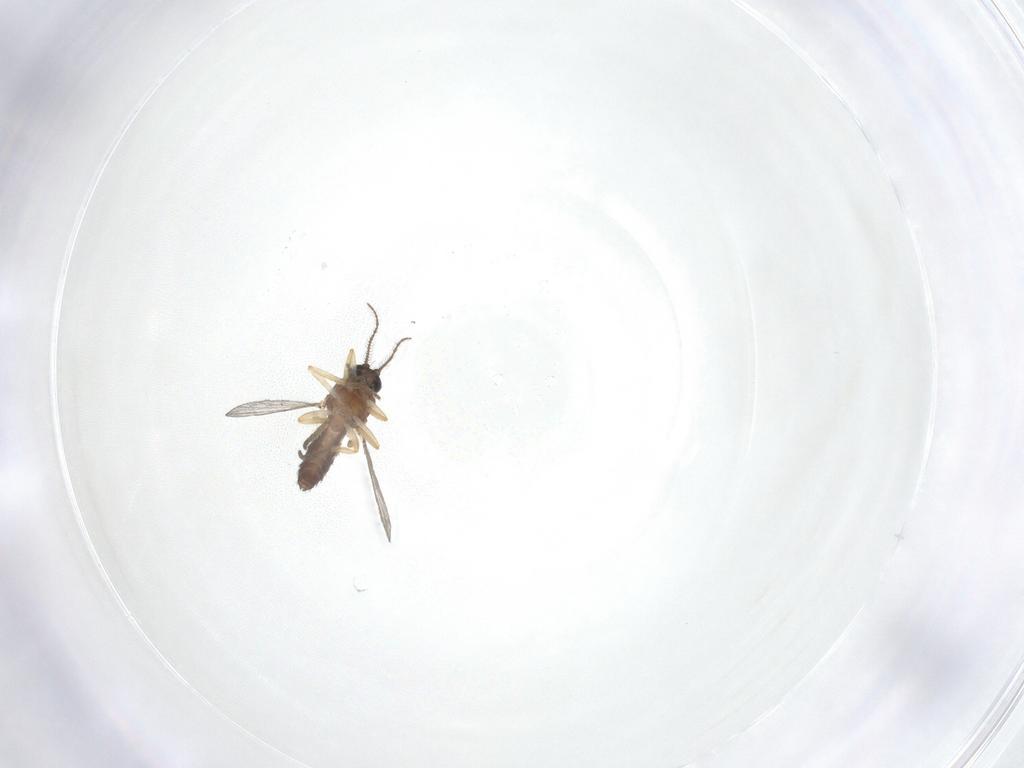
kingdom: Animalia
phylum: Arthropoda
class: Insecta
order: Diptera
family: Ceratopogonidae
